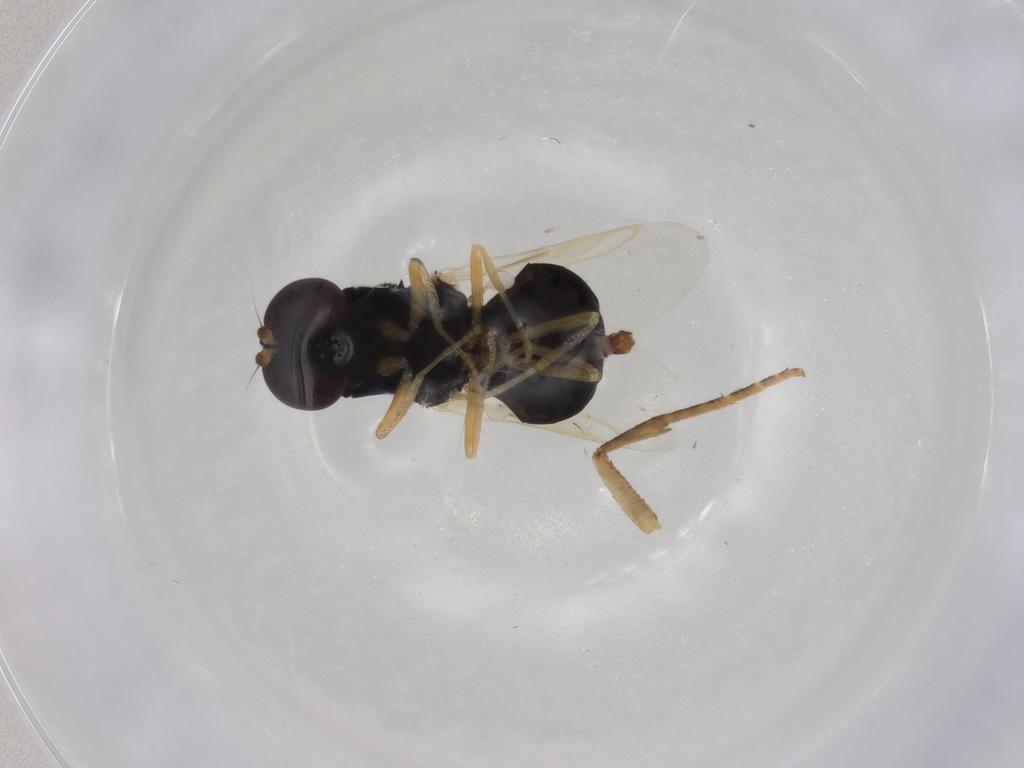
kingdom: Animalia
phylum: Arthropoda
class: Insecta
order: Diptera
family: Stratiomyidae
